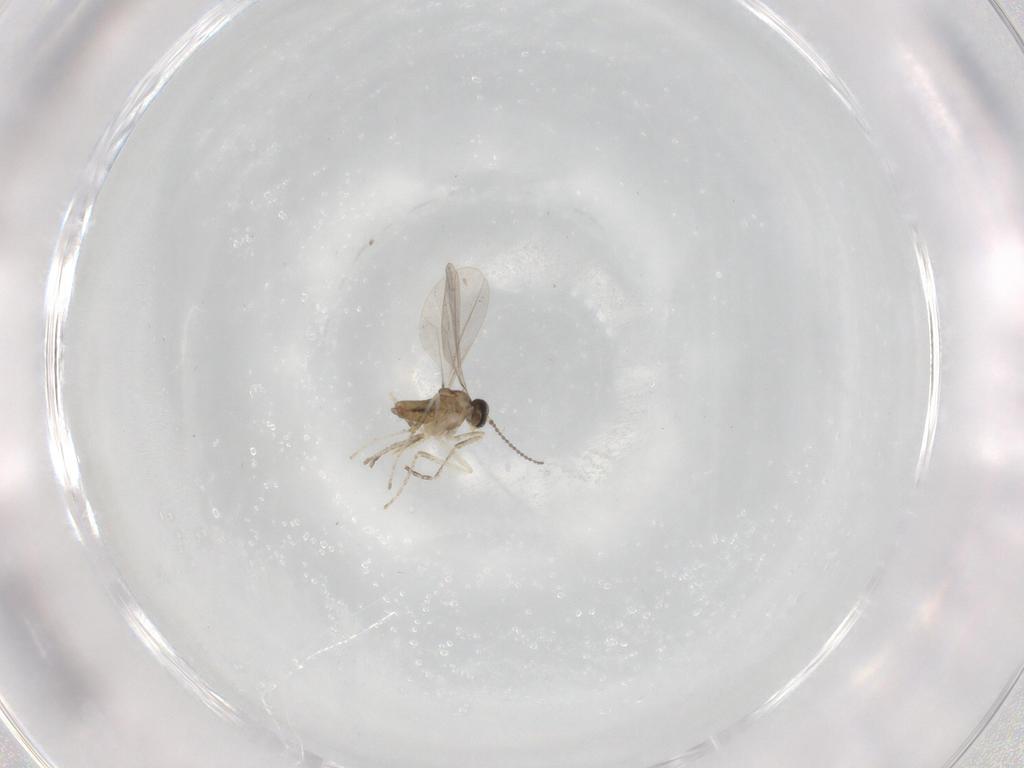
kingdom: Animalia
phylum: Arthropoda
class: Insecta
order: Diptera
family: Cecidomyiidae
